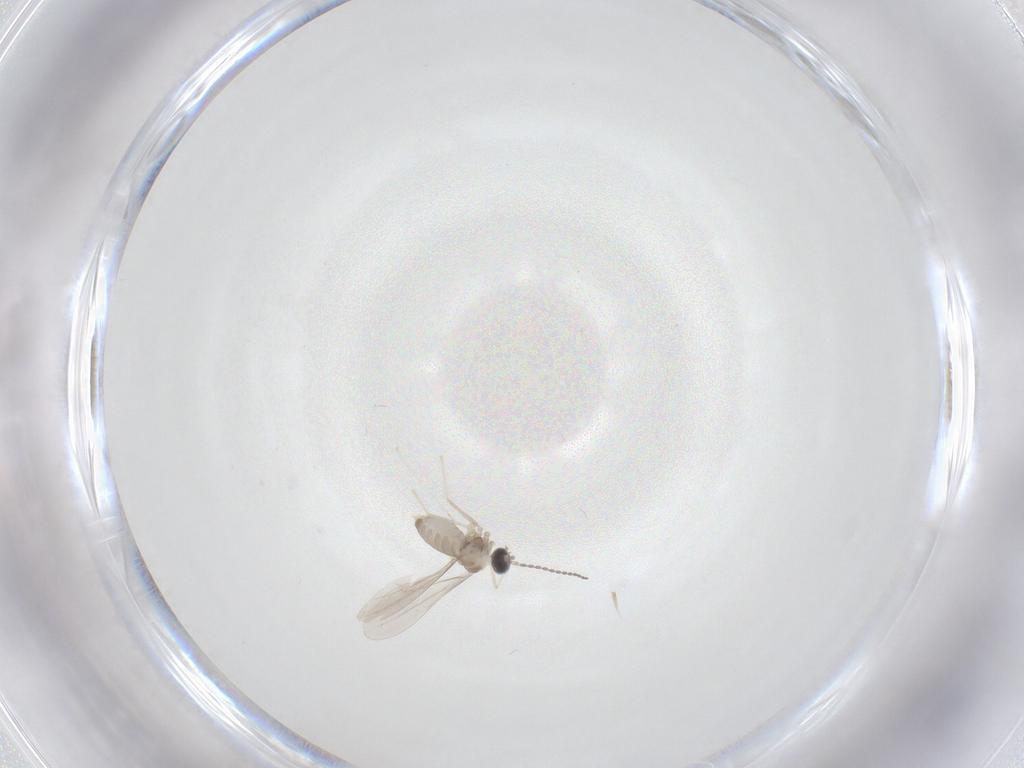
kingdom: Animalia
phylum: Arthropoda
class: Insecta
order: Diptera
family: Cecidomyiidae
